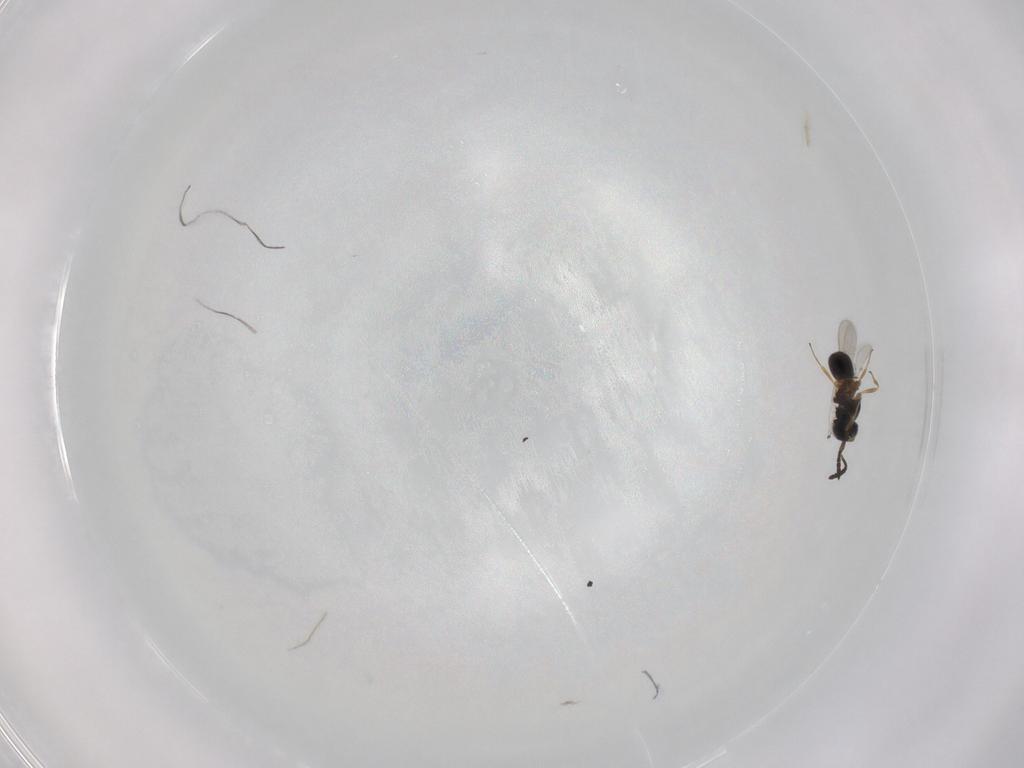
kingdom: Animalia
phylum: Arthropoda
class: Insecta
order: Hymenoptera
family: Scelionidae
